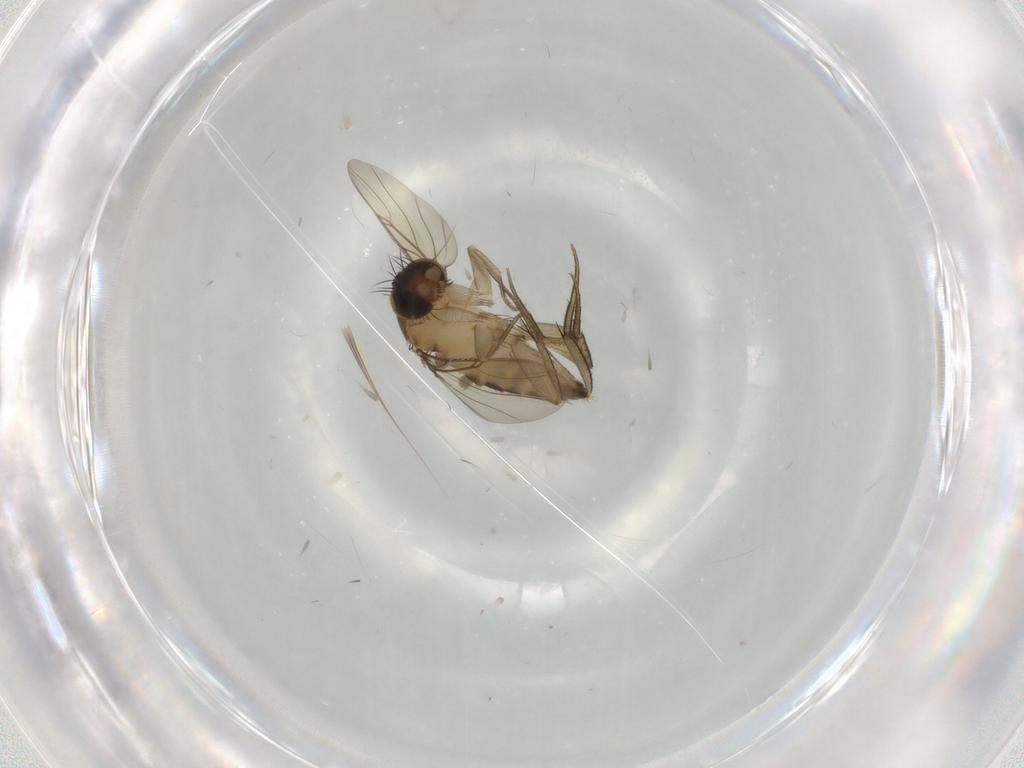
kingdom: Animalia
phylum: Arthropoda
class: Insecta
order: Diptera
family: Phoridae
